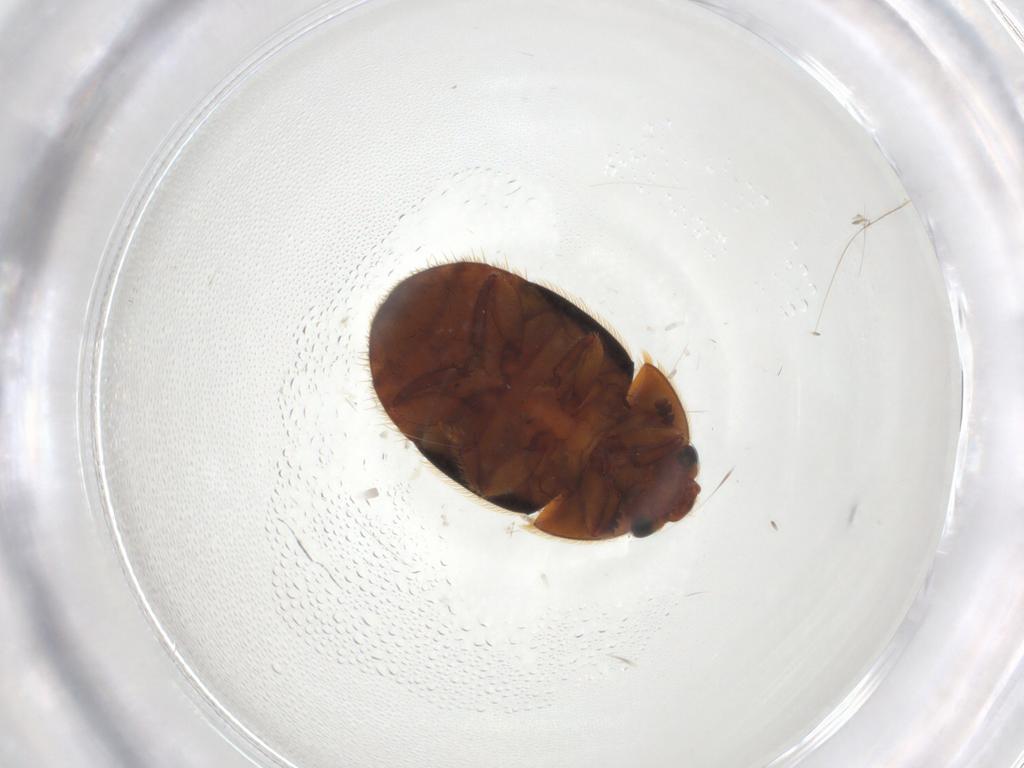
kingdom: Animalia
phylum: Arthropoda
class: Insecta
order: Coleoptera
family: Nitidulidae
